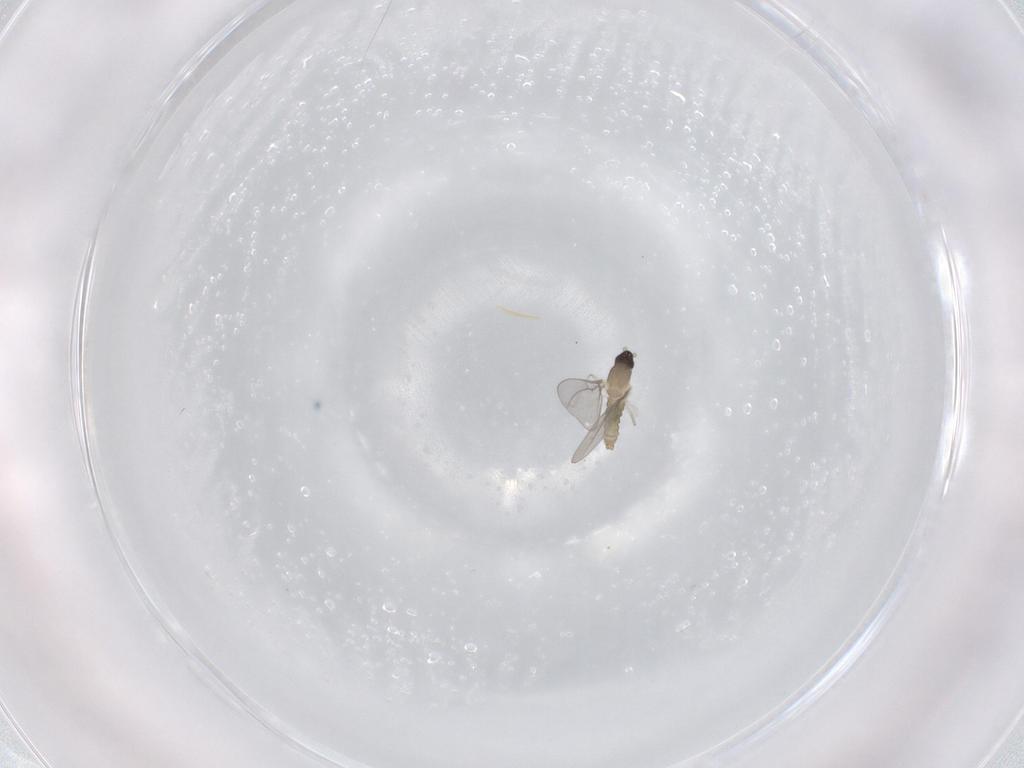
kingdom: Animalia
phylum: Arthropoda
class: Insecta
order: Diptera
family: Cecidomyiidae
